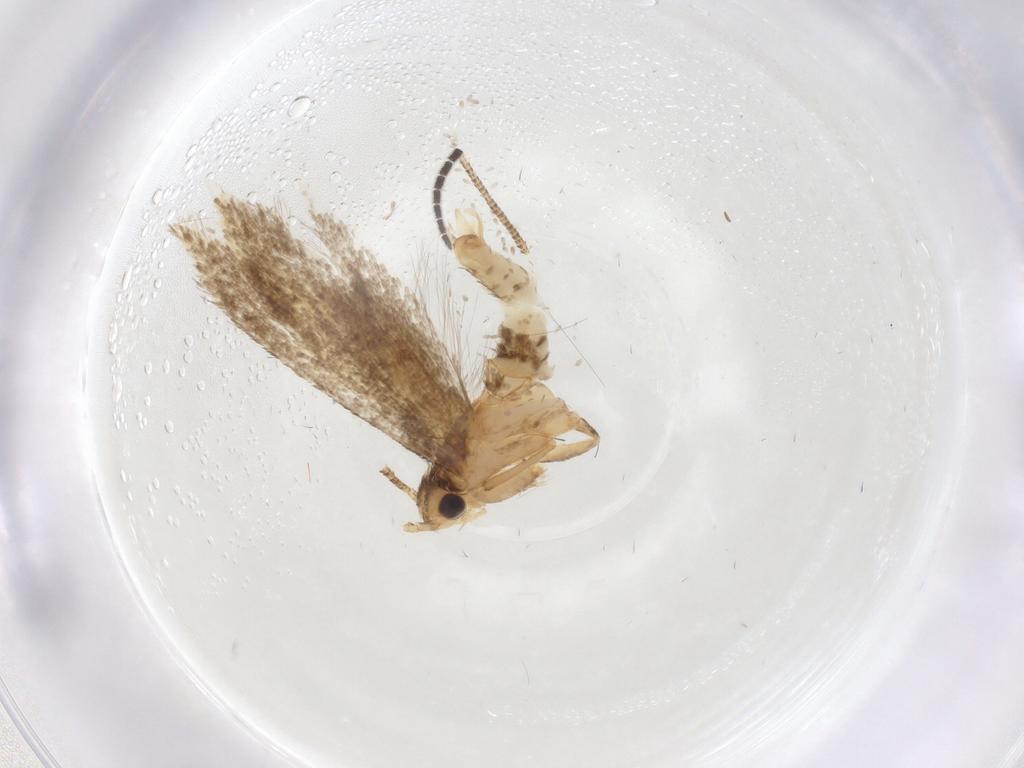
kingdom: Animalia
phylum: Arthropoda
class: Insecta
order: Lepidoptera
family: Tineidae
